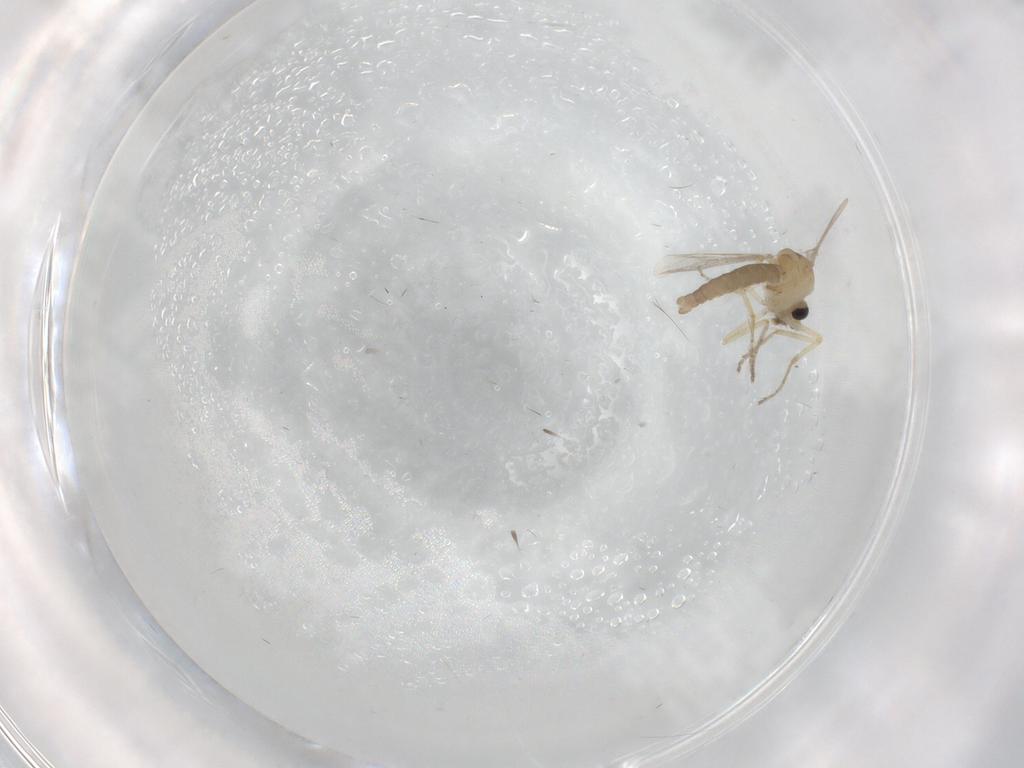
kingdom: Animalia
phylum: Arthropoda
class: Insecta
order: Diptera
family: Ceratopogonidae
